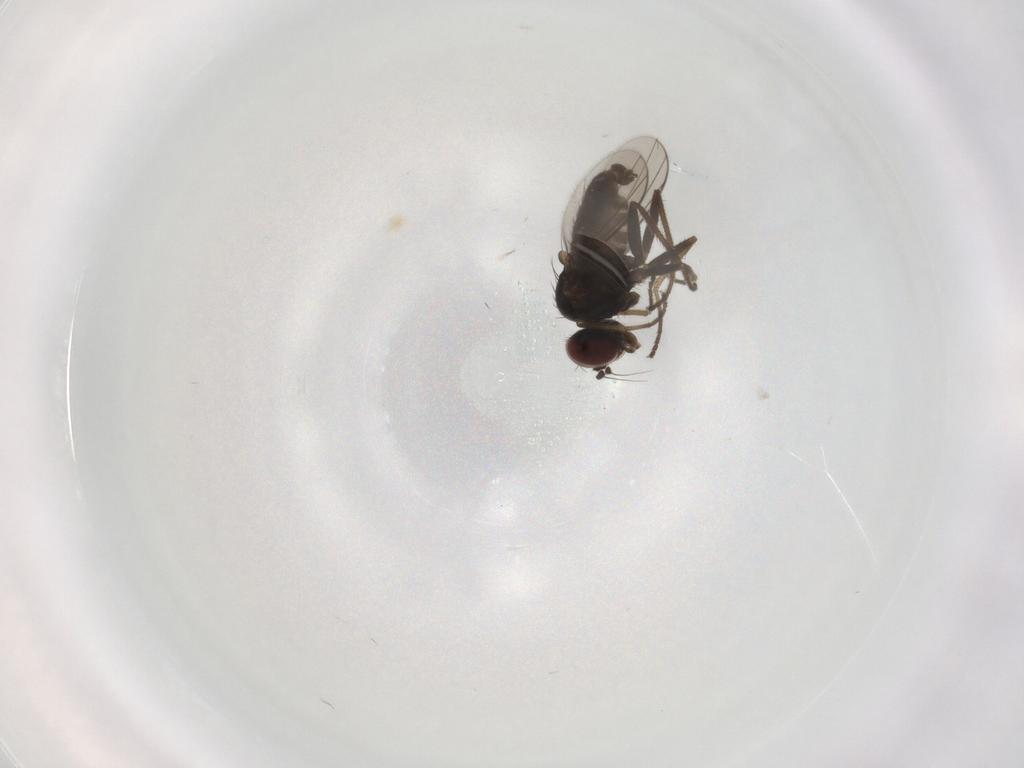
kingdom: Animalia
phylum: Arthropoda
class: Insecta
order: Diptera
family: Dolichopodidae
